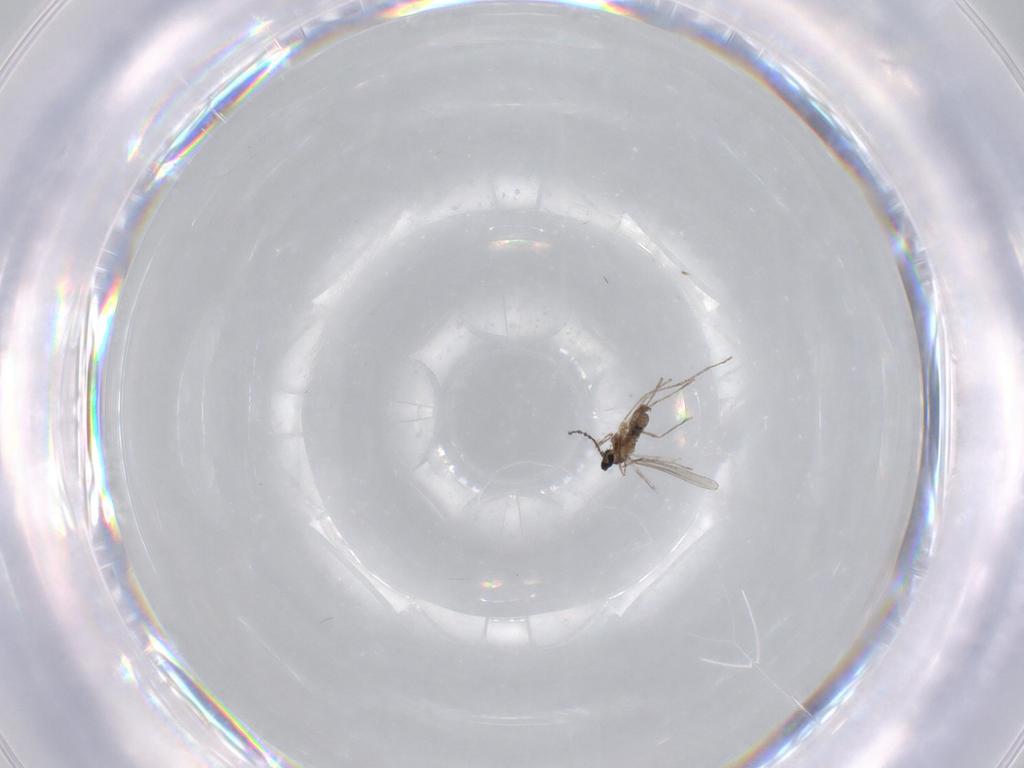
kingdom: Animalia
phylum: Arthropoda
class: Insecta
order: Diptera
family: Cecidomyiidae
